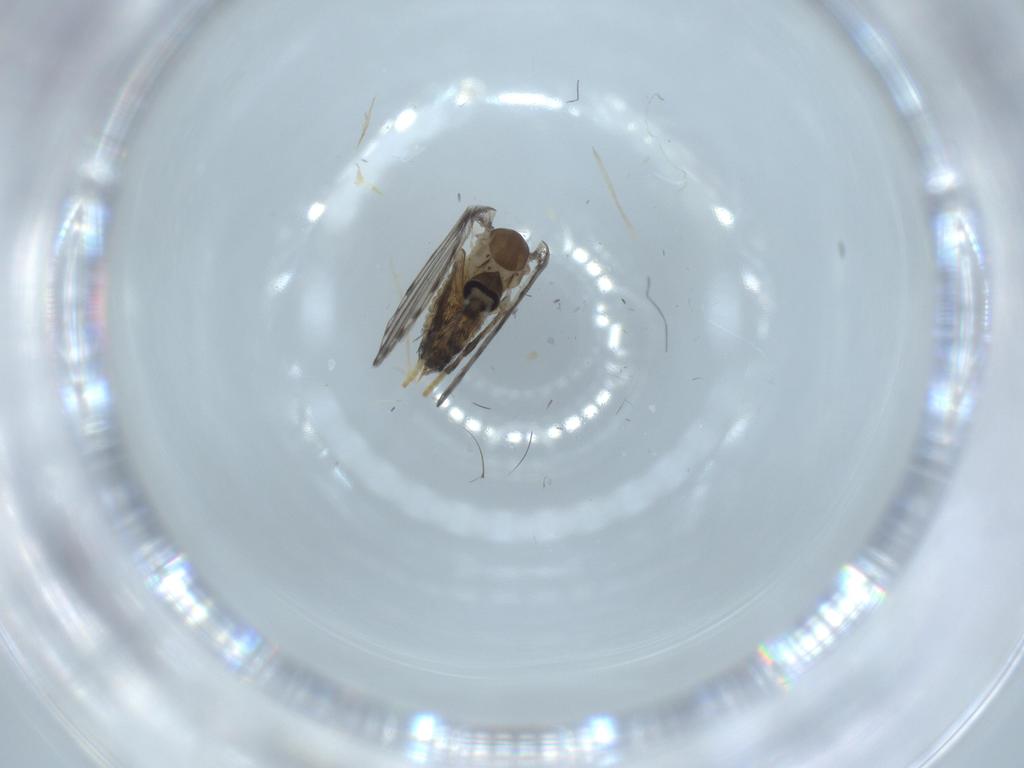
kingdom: Animalia
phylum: Arthropoda
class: Insecta
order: Diptera
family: Psychodidae
